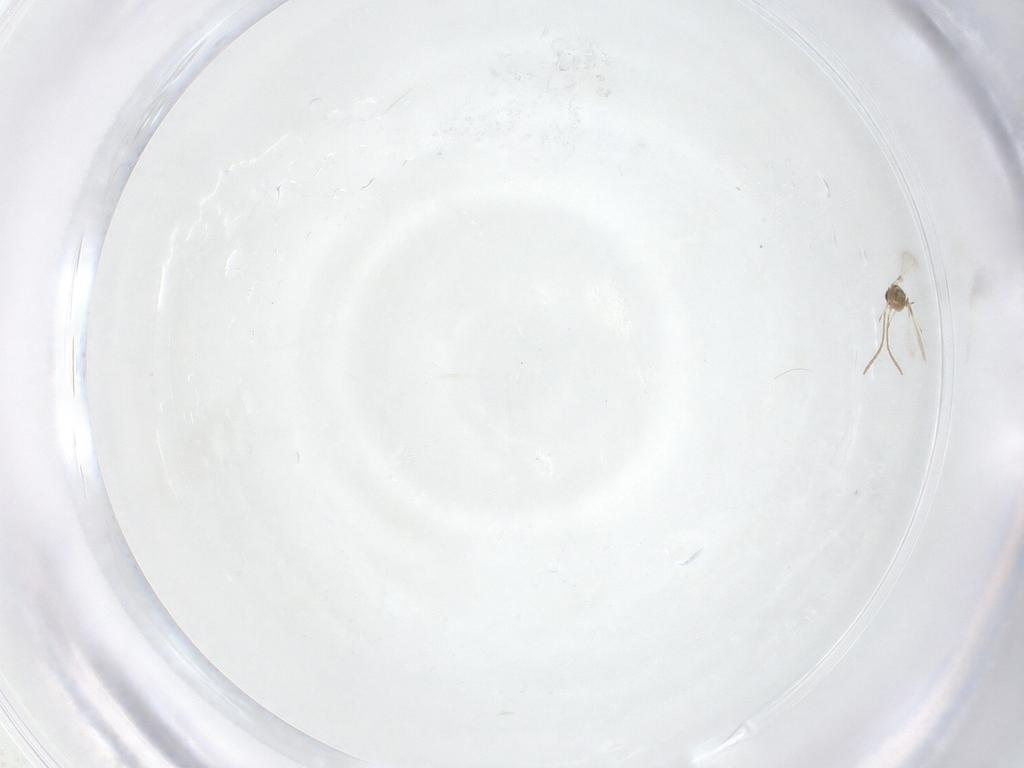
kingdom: Animalia
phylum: Arthropoda
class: Insecta
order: Hymenoptera
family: Mymaridae
